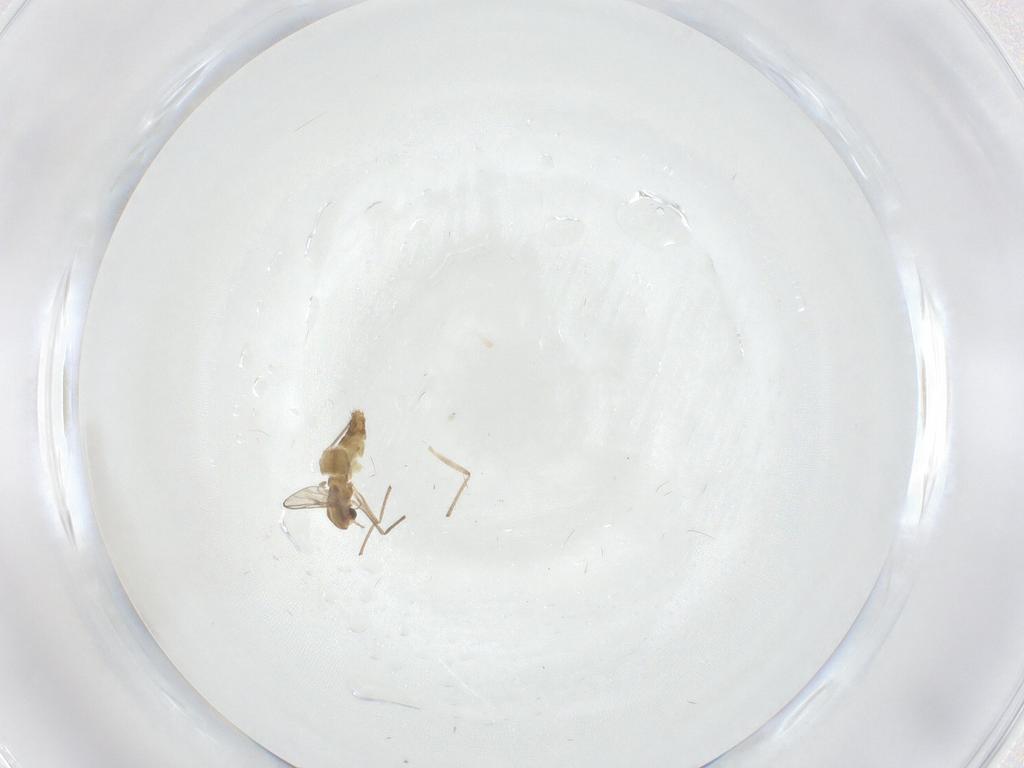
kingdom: Animalia
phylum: Arthropoda
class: Insecta
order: Diptera
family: Chironomidae
